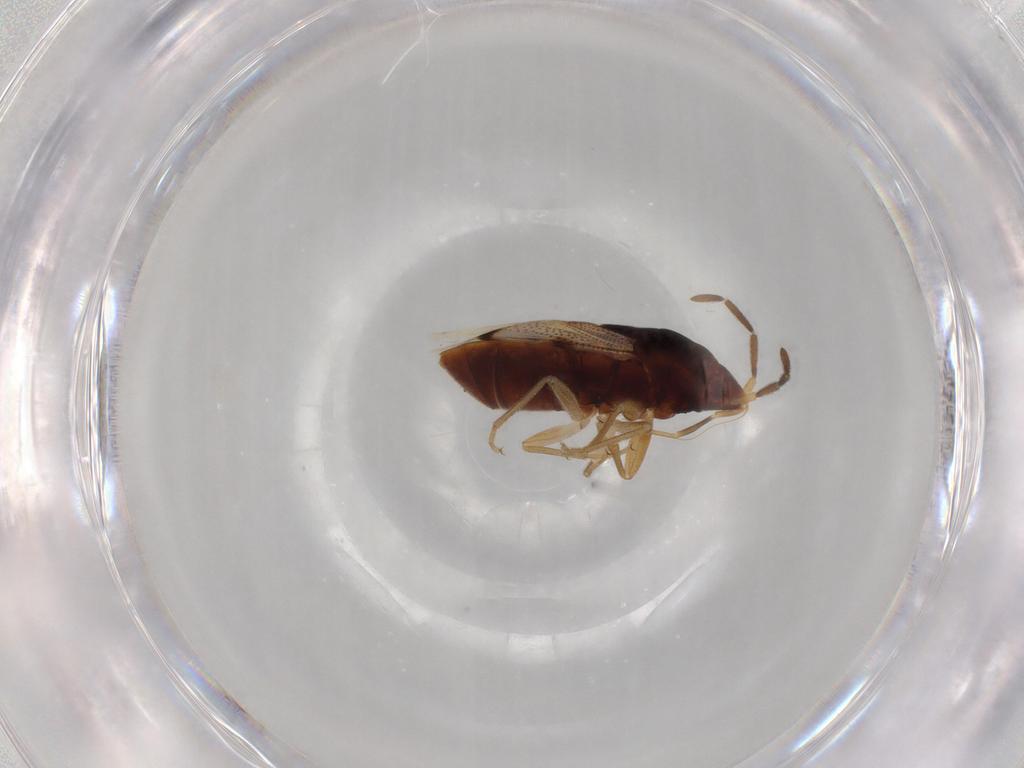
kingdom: Animalia
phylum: Arthropoda
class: Insecta
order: Hemiptera
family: Rhyparochromidae
